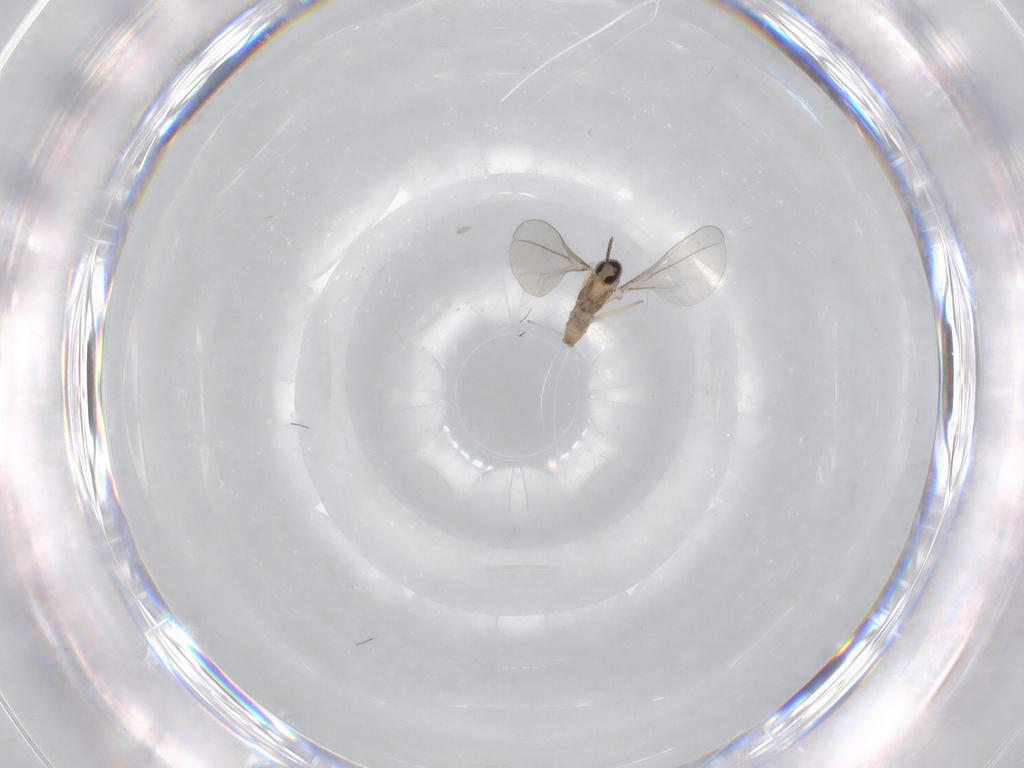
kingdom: Animalia
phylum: Arthropoda
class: Insecta
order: Diptera
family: Cecidomyiidae
